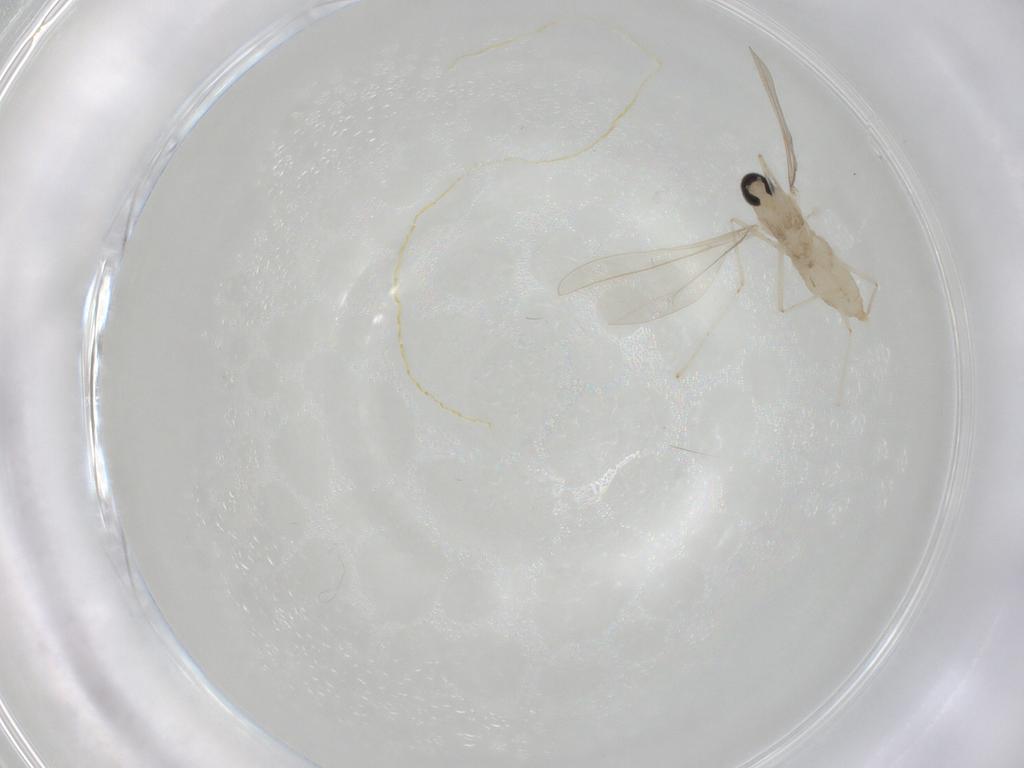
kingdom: Animalia
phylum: Arthropoda
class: Insecta
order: Diptera
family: Cecidomyiidae
